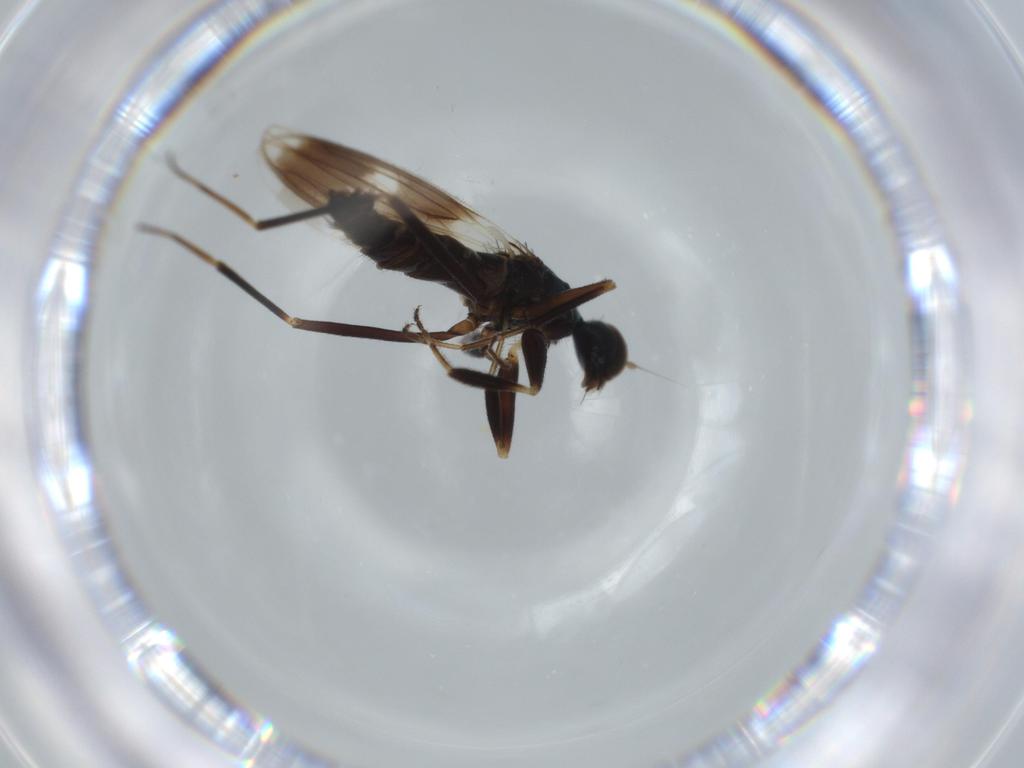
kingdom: Animalia
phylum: Arthropoda
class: Insecta
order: Diptera
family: Hybotidae
